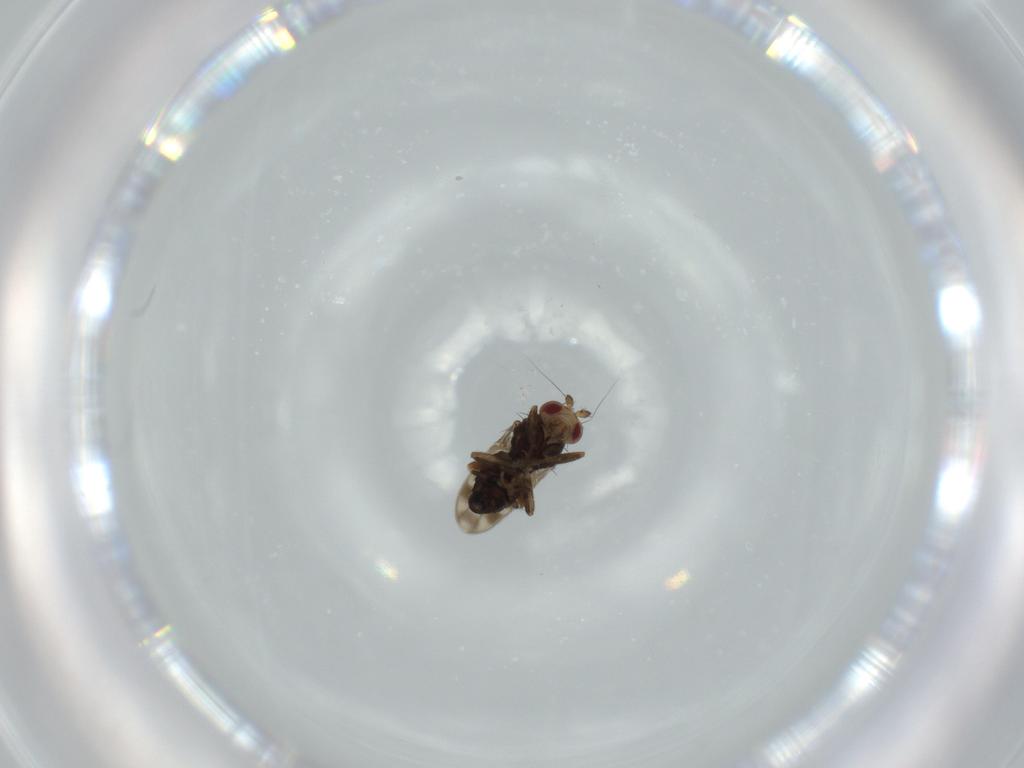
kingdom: Animalia
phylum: Arthropoda
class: Insecta
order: Diptera
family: Sphaeroceridae
